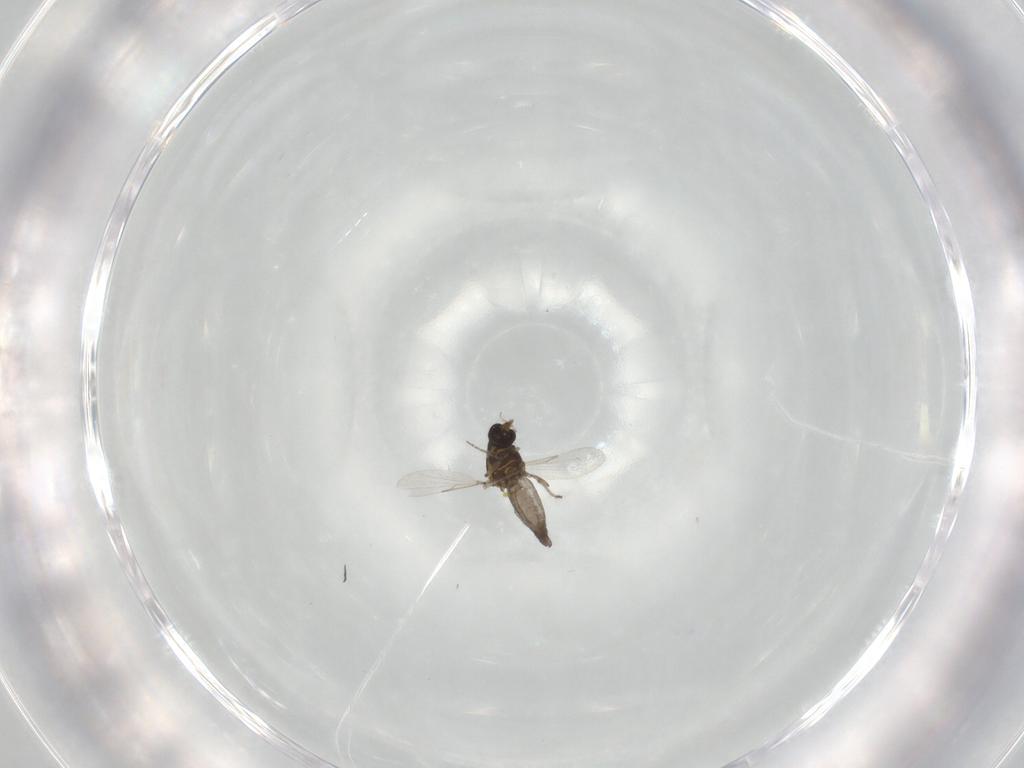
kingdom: Animalia
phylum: Arthropoda
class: Insecta
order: Diptera
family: Ceratopogonidae
